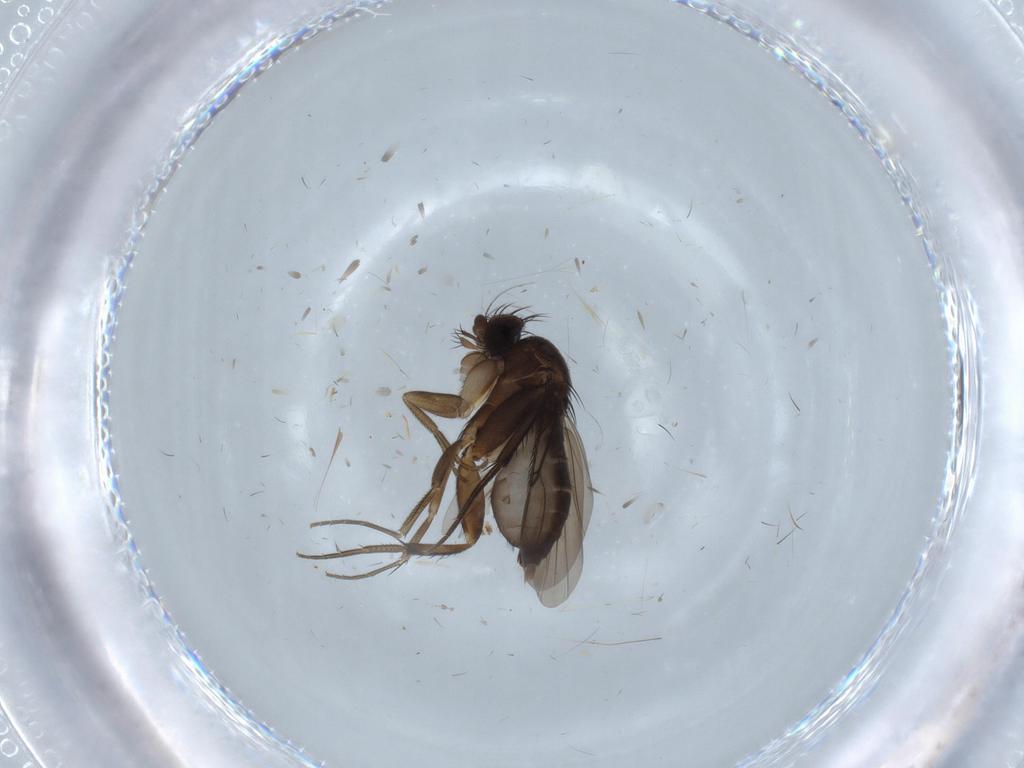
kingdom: Animalia
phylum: Arthropoda
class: Insecta
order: Diptera
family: Phoridae
